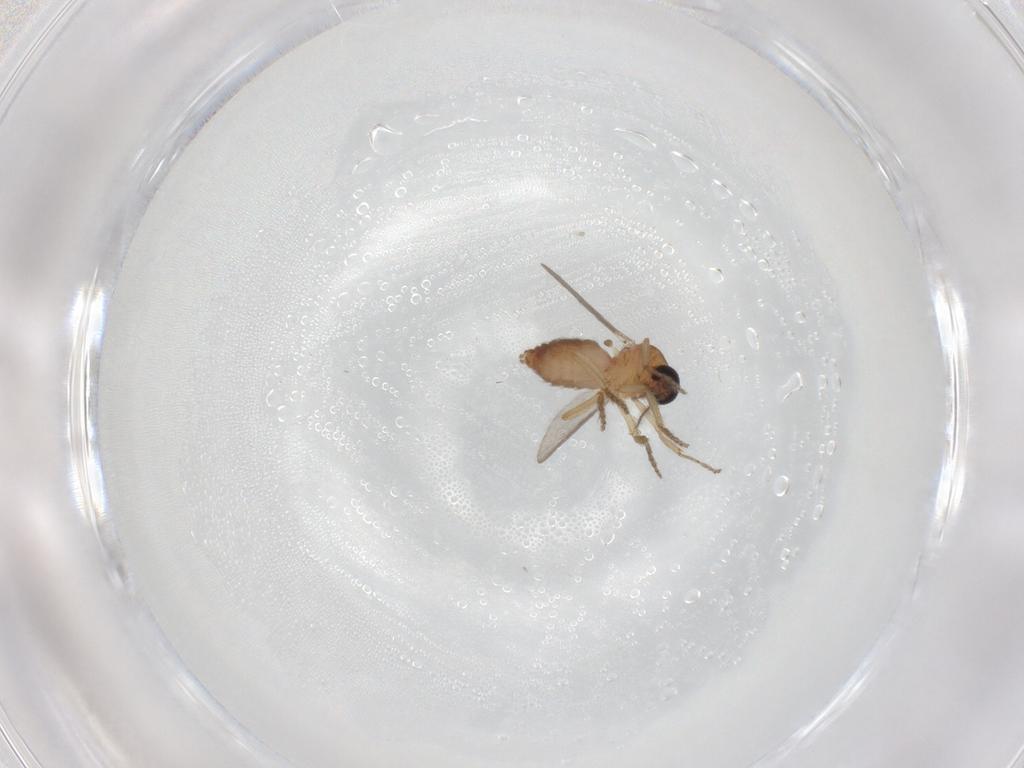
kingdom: Animalia
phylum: Arthropoda
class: Insecta
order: Diptera
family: Ceratopogonidae
